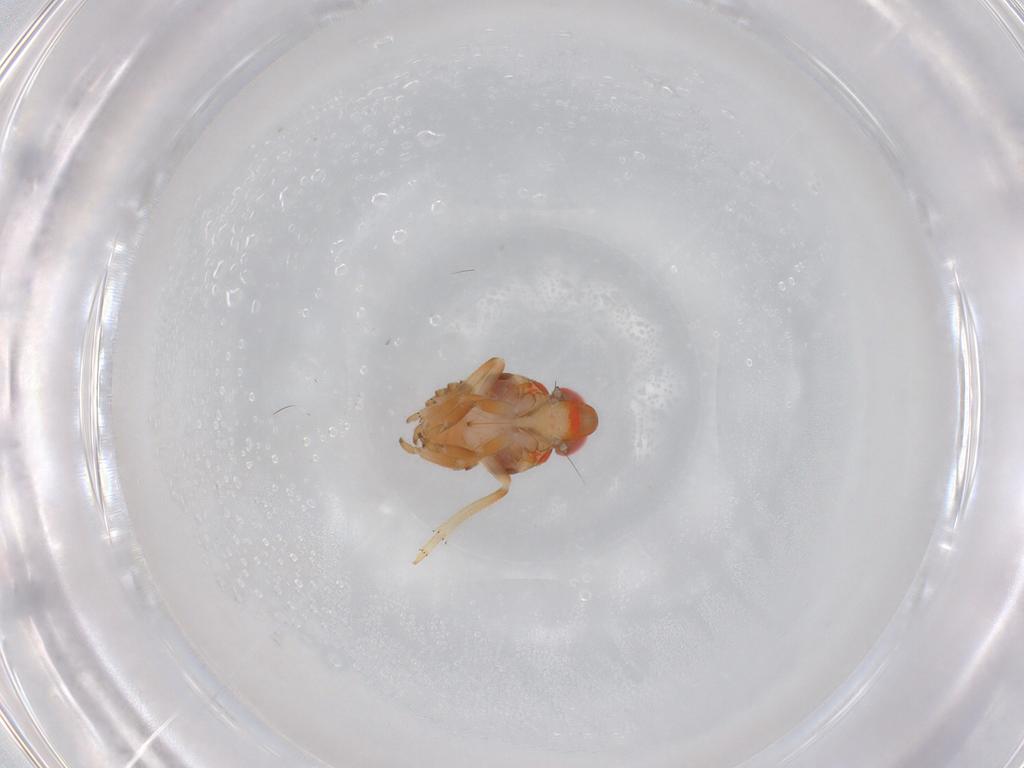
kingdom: Animalia
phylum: Arthropoda
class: Insecta
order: Hemiptera
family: Issidae
